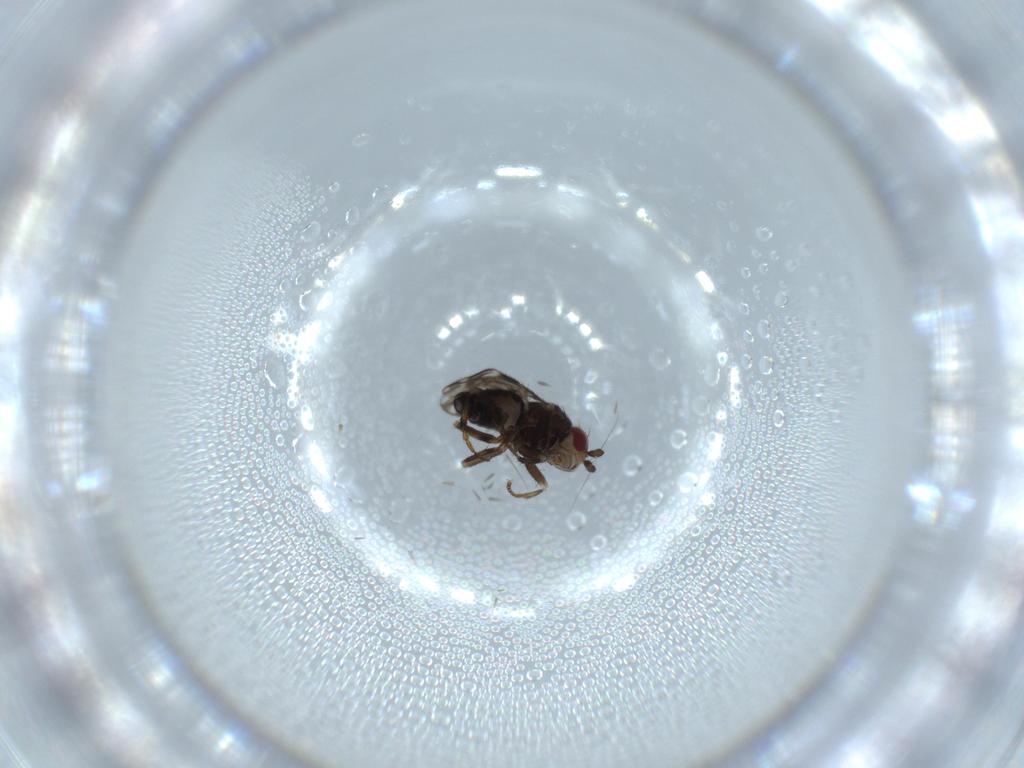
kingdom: Animalia
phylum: Arthropoda
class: Insecta
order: Diptera
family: Sphaeroceridae
